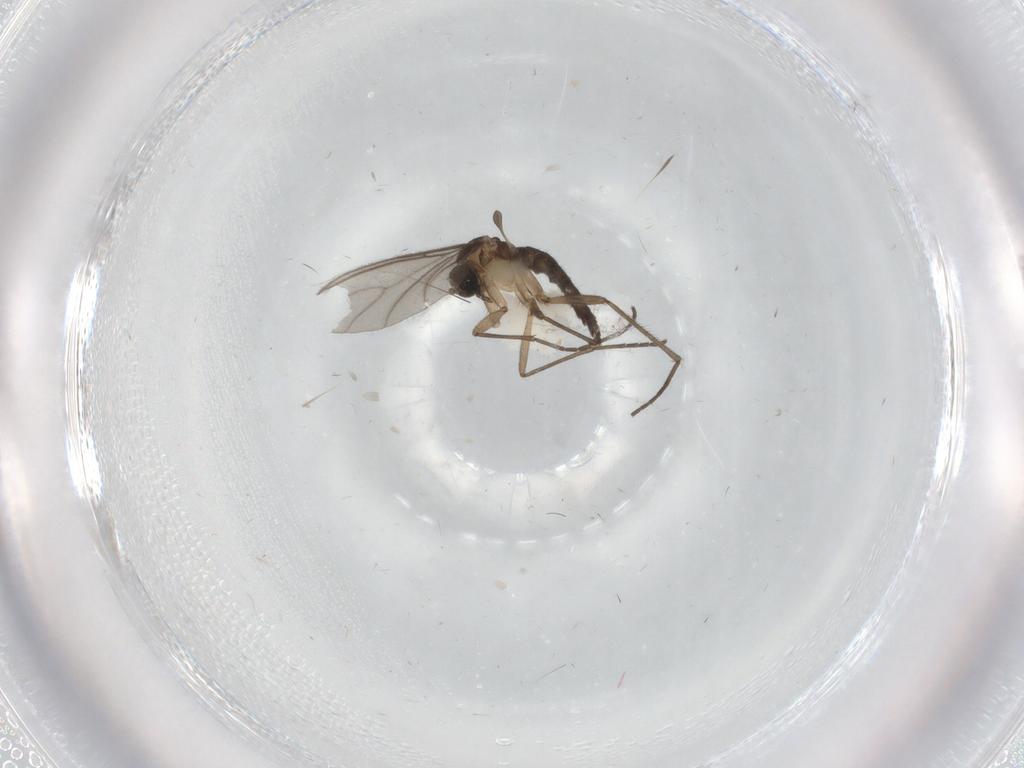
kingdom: Animalia
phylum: Arthropoda
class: Insecta
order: Diptera
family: Sciaridae
